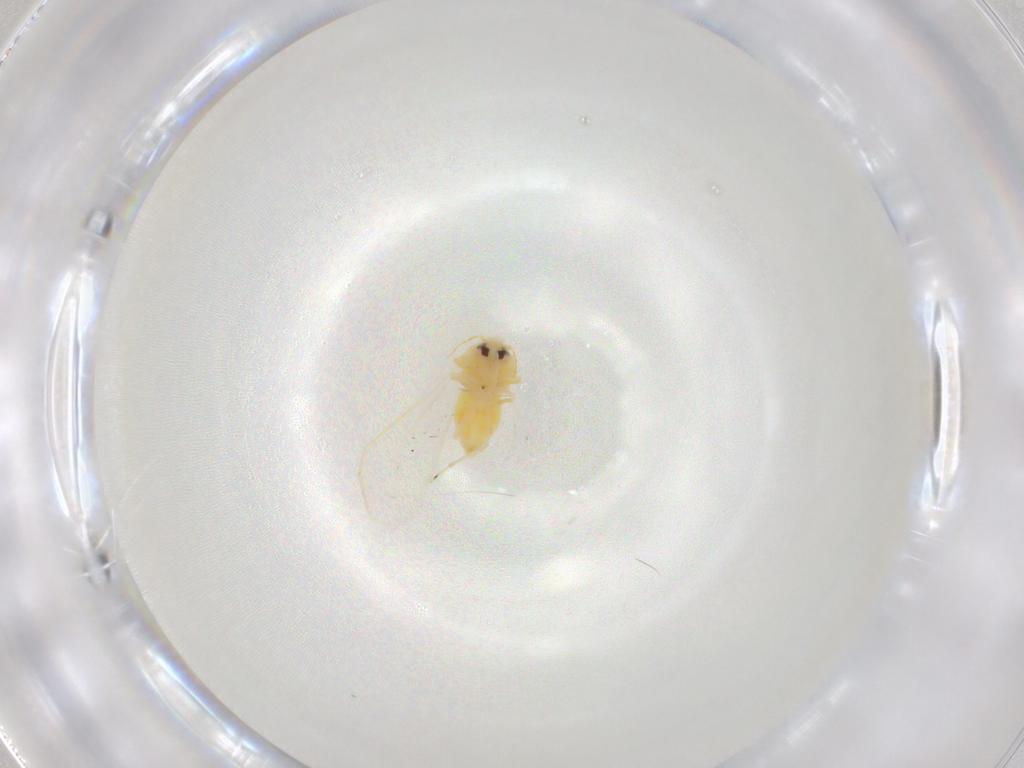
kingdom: Animalia
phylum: Arthropoda
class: Insecta
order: Hemiptera
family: Aleyrodidae
